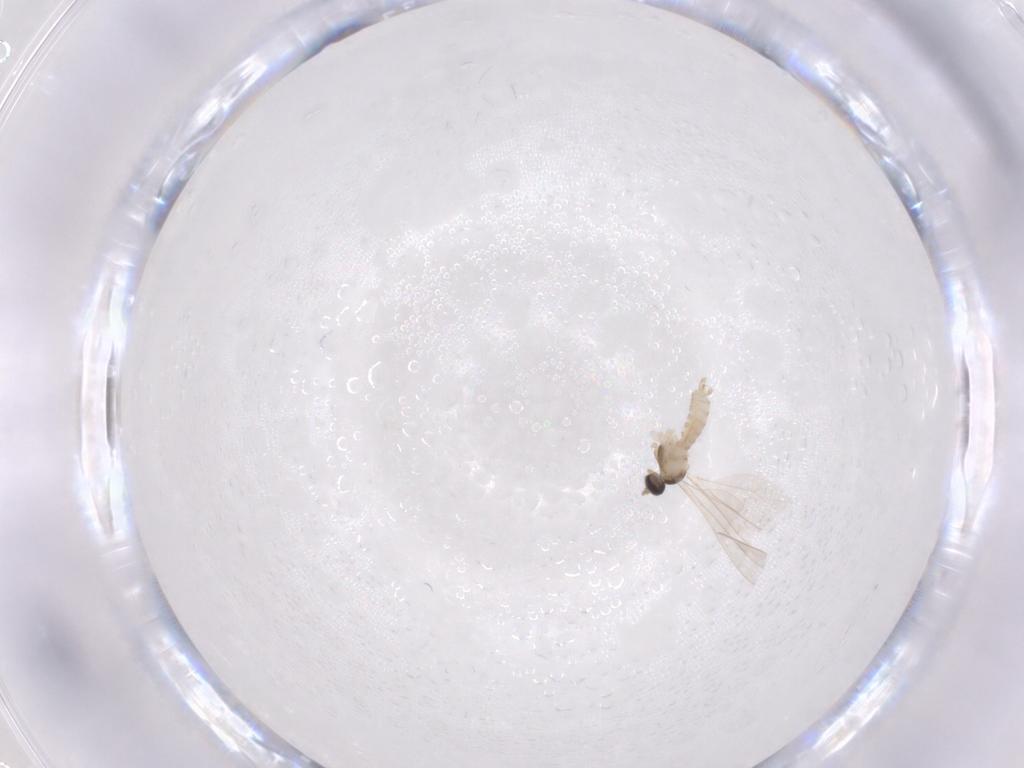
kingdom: Animalia
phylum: Arthropoda
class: Insecta
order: Diptera
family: Cecidomyiidae
